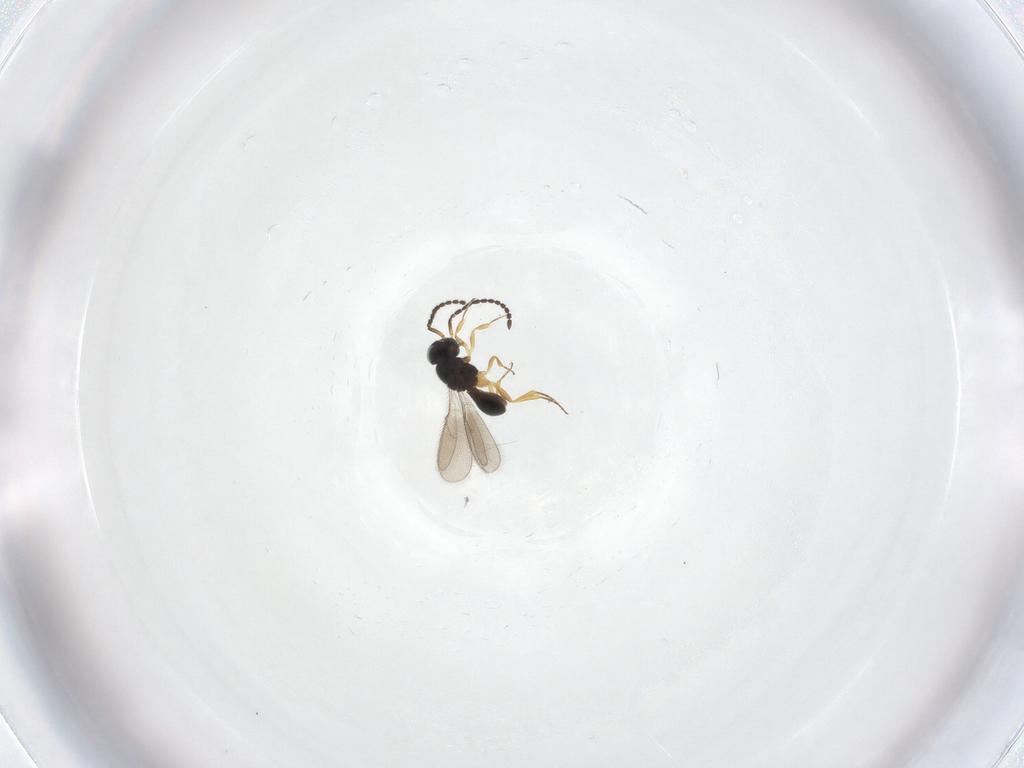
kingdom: Animalia
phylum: Arthropoda
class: Insecta
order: Hymenoptera
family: Scelionidae
